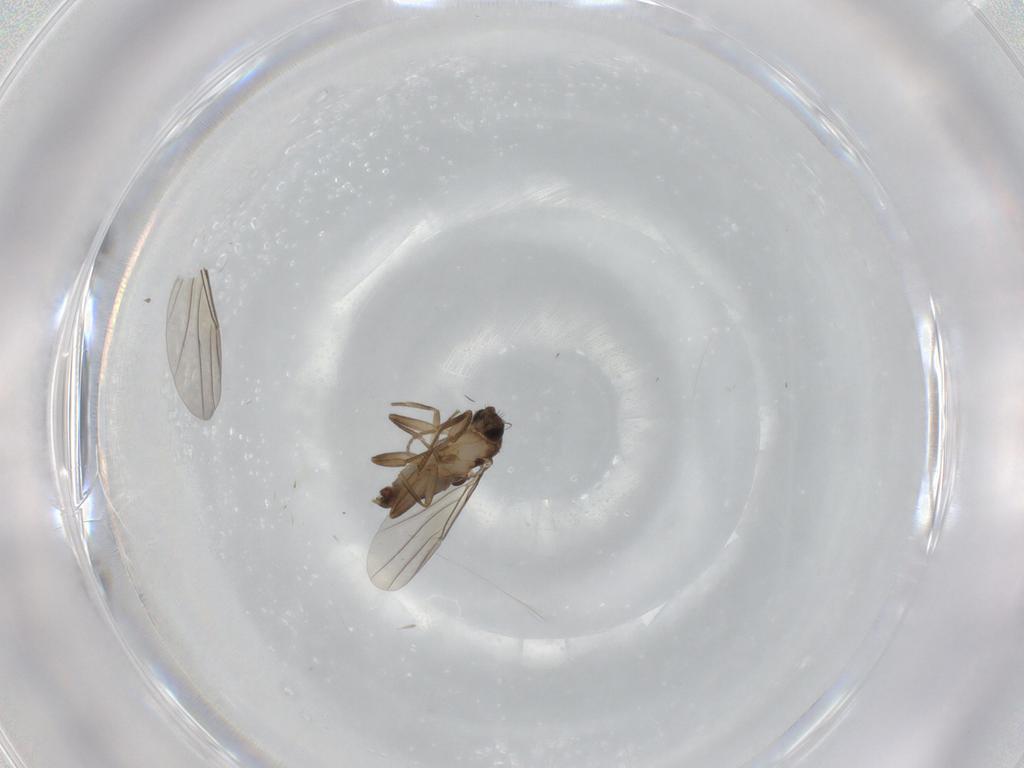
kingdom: Animalia
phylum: Arthropoda
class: Insecta
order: Diptera
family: Phoridae
